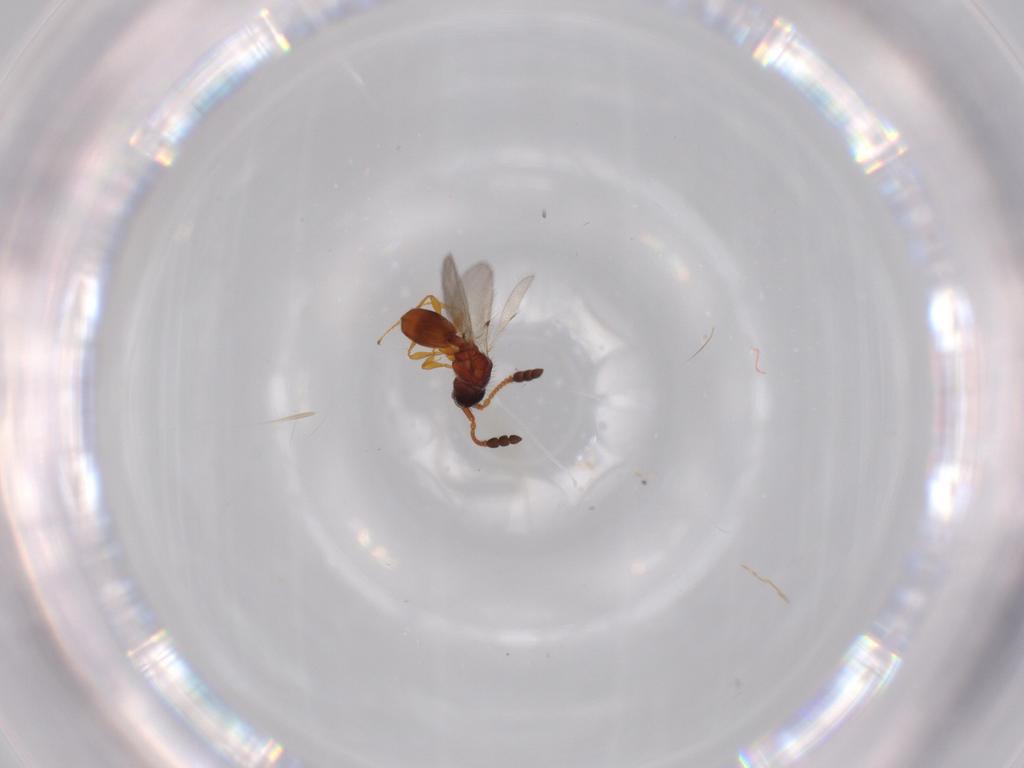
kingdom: Animalia
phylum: Arthropoda
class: Insecta
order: Hymenoptera
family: Diapriidae
